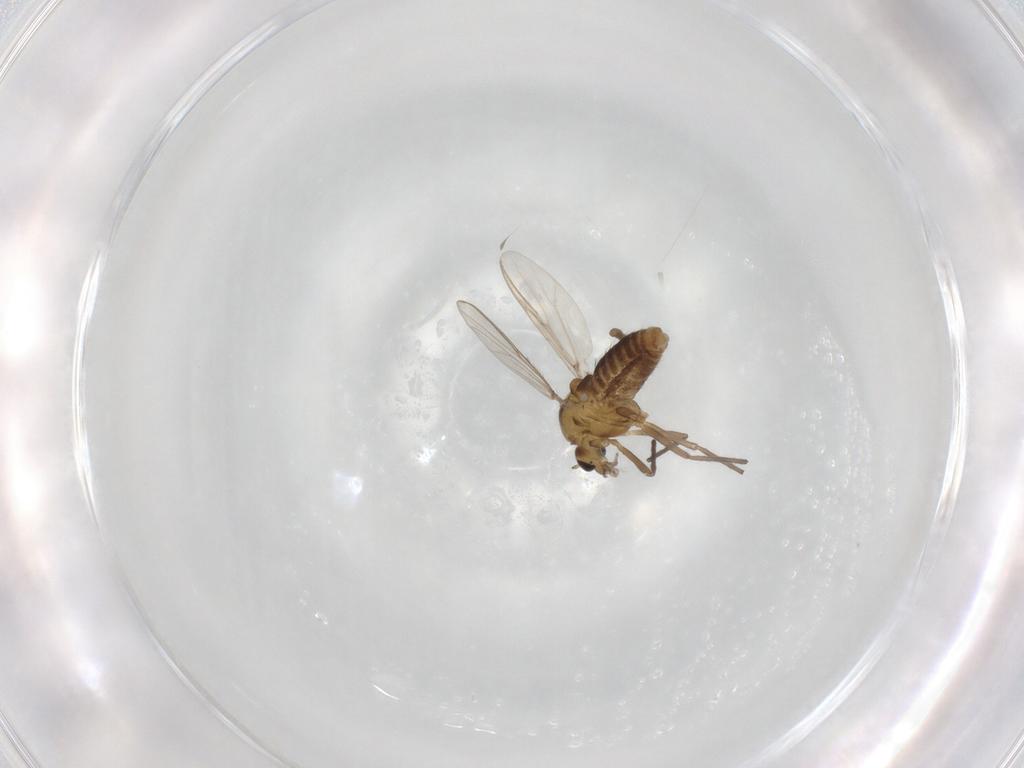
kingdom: Animalia
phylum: Arthropoda
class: Insecta
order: Diptera
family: Chironomidae
